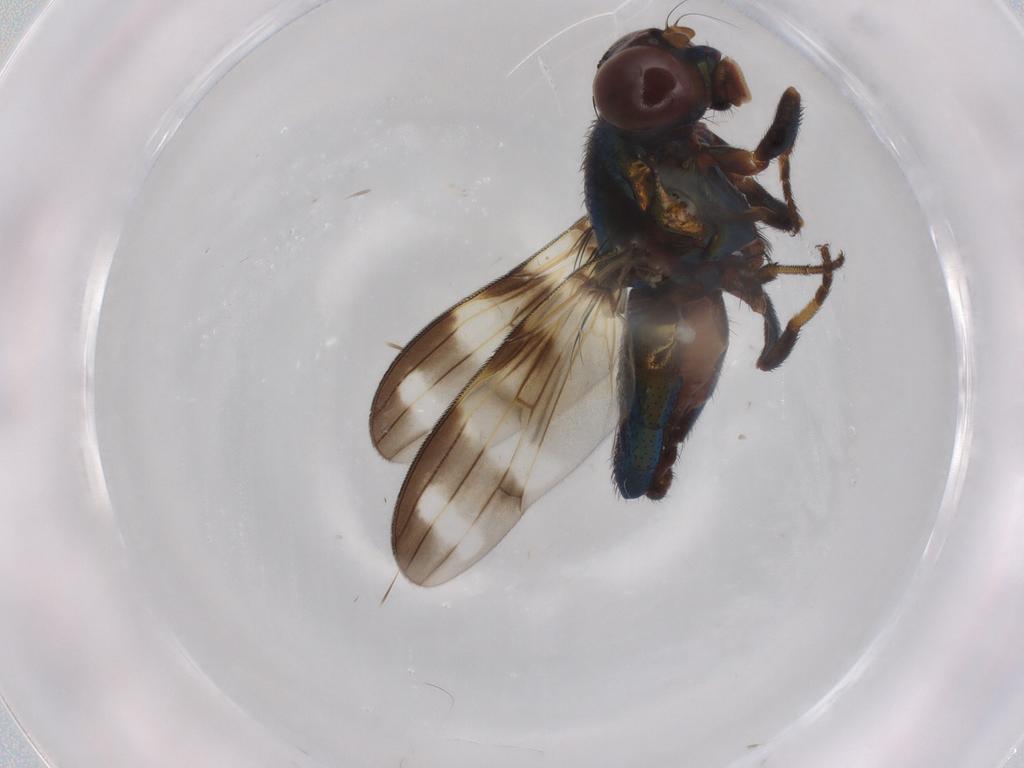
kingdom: Animalia
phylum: Arthropoda
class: Insecta
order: Diptera
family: Ulidiidae
